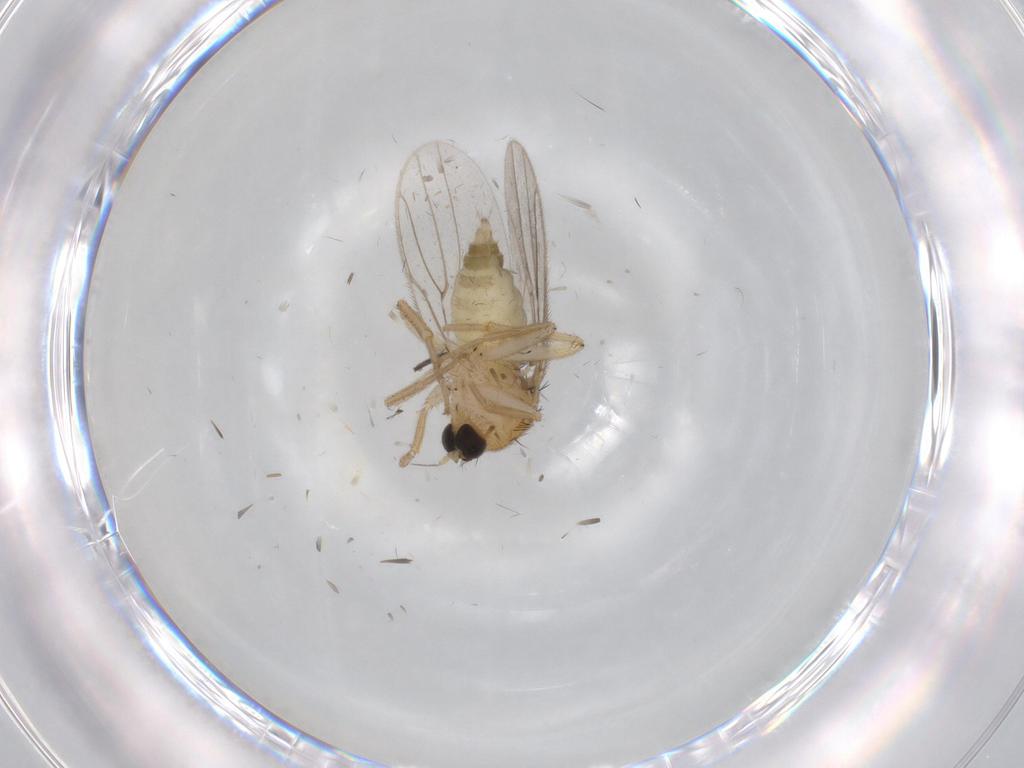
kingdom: Animalia
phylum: Arthropoda
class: Insecta
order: Diptera
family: Hybotidae
